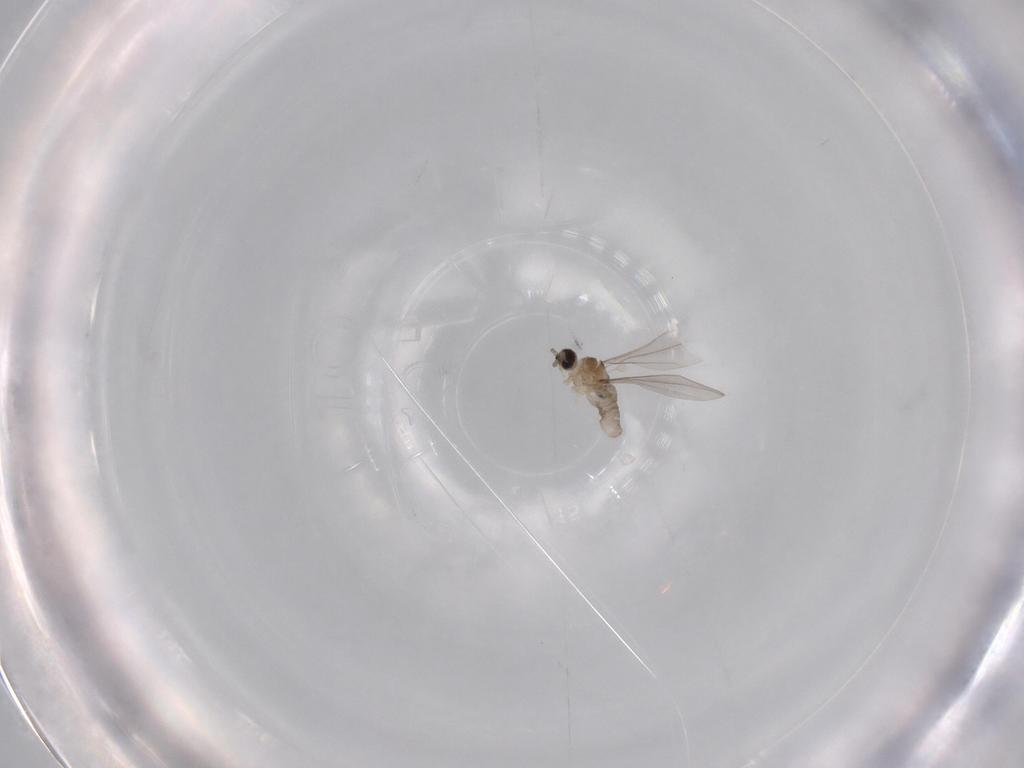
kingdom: Animalia
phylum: Arthropoda
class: Insecta
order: Diptera
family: Cecidomyiidae
